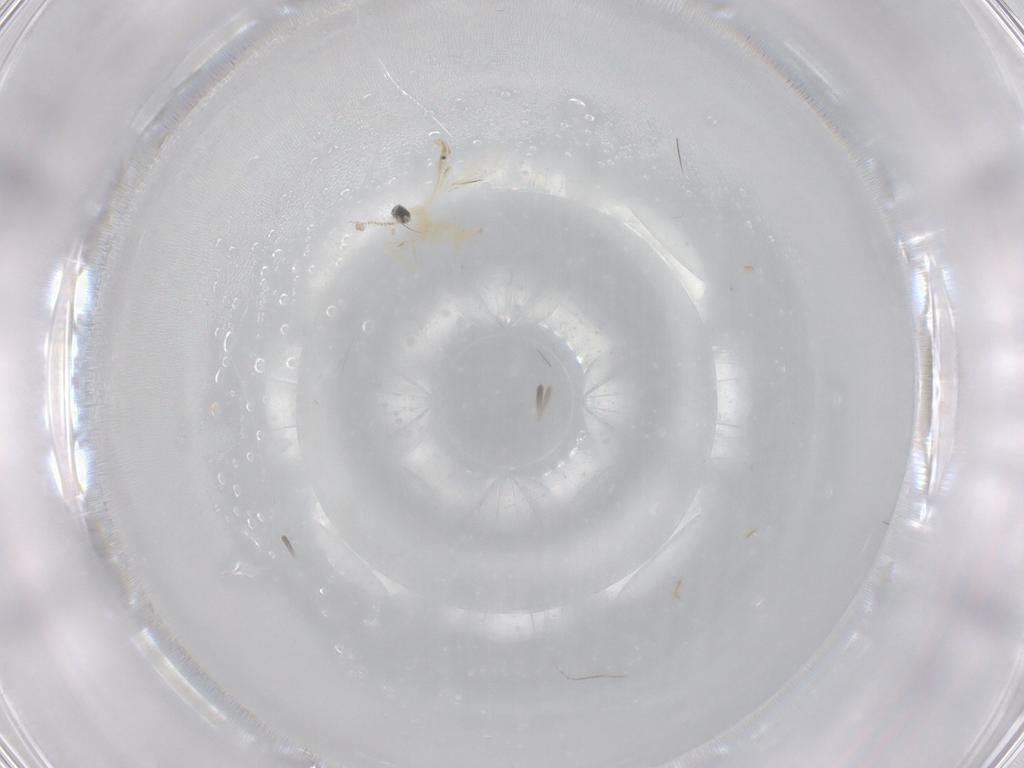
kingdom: Animalia
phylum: Arthropoda
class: Insecta
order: Diptera
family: Cecidomyiidae
